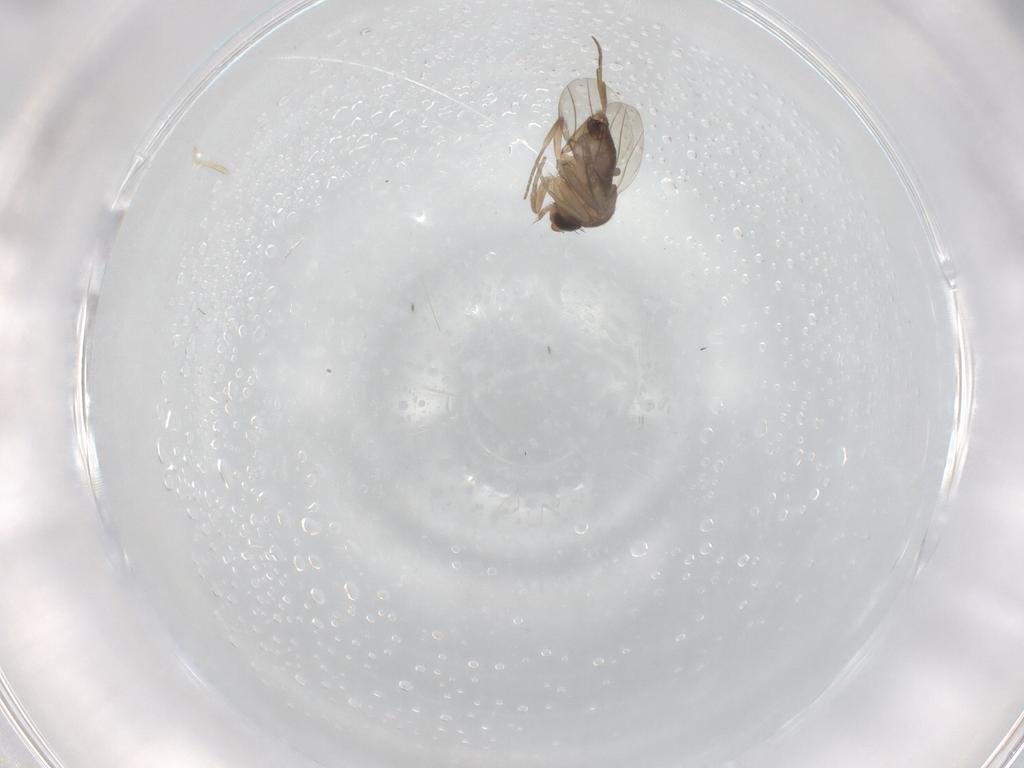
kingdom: Animalia
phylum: Arthropoda
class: Insecta
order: Diptera
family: Phoridae
